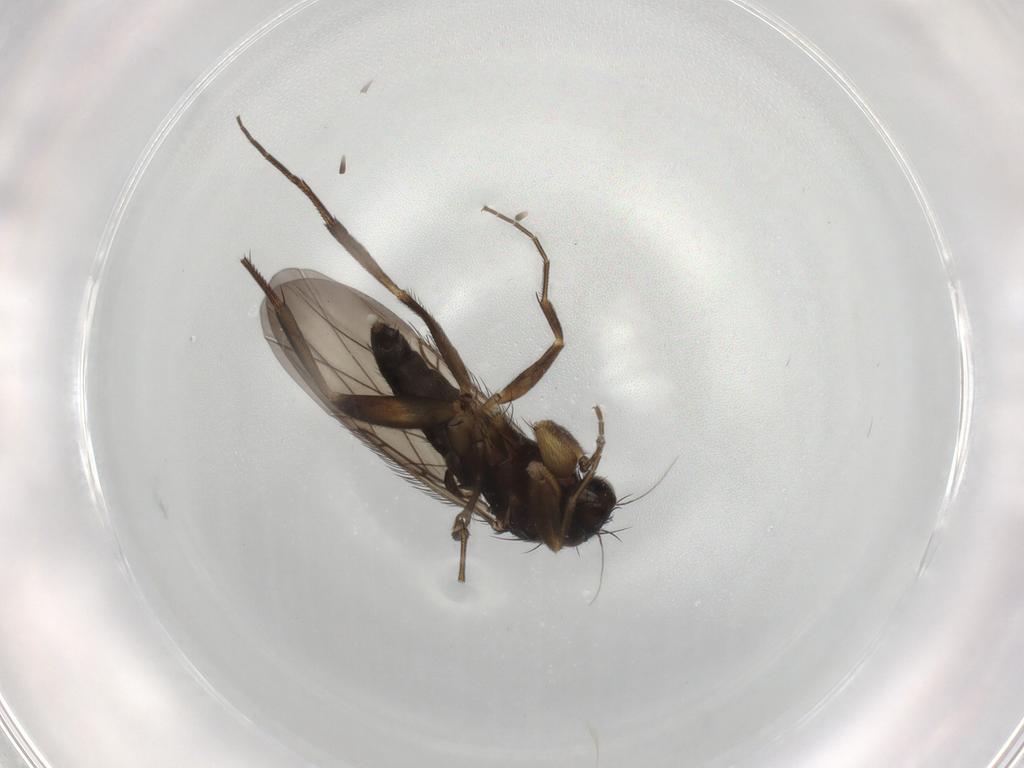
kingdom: Animalia
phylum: Arthropoda
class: Insecta
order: Diptera
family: Phoridae
